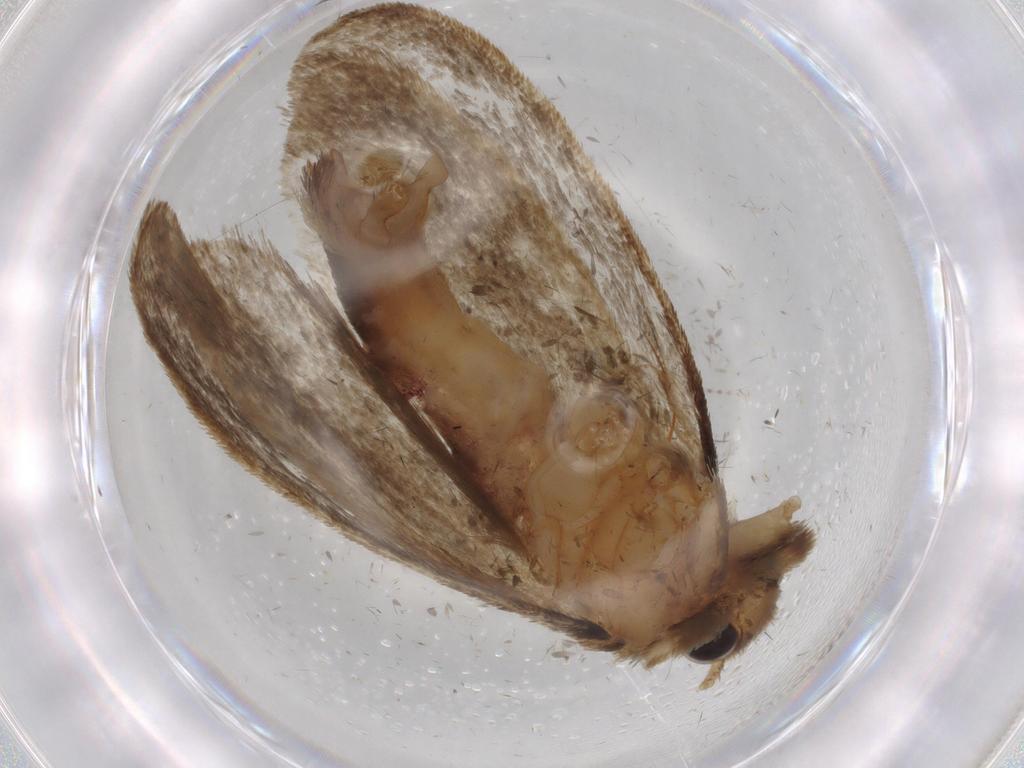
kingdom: Animalia
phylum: Arthropoda
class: Insecta
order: Lepidoptera
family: Tineidae
